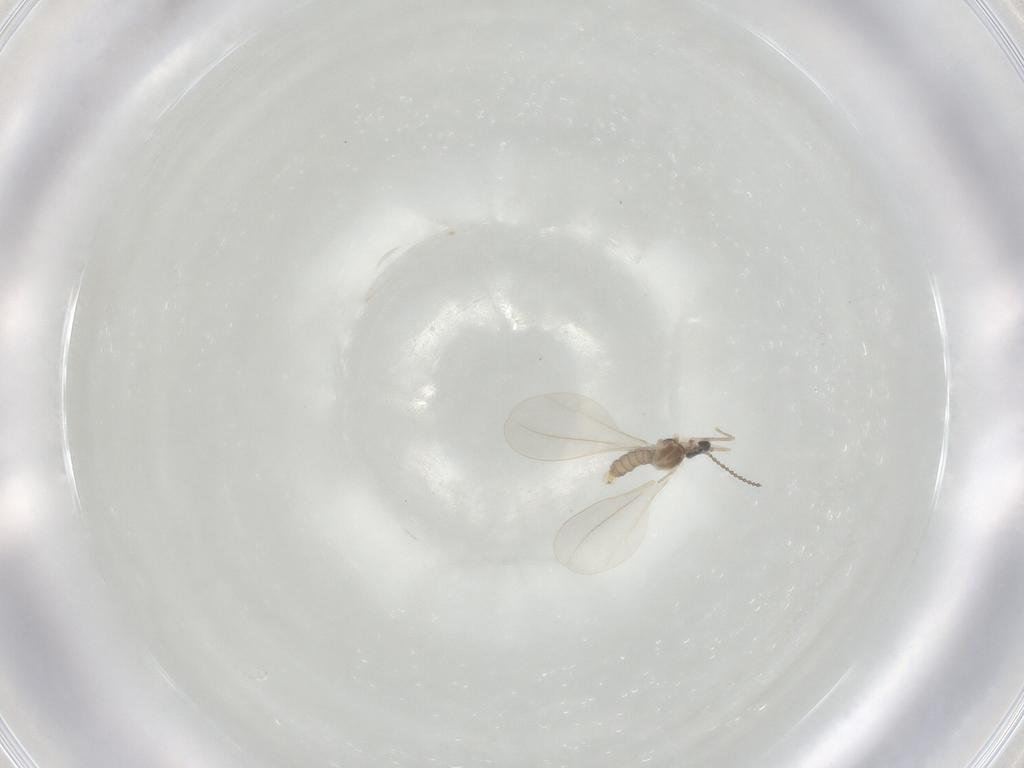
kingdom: Animalia
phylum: Arthropoda
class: Insecta
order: Diptera
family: Cecidomyiidae
